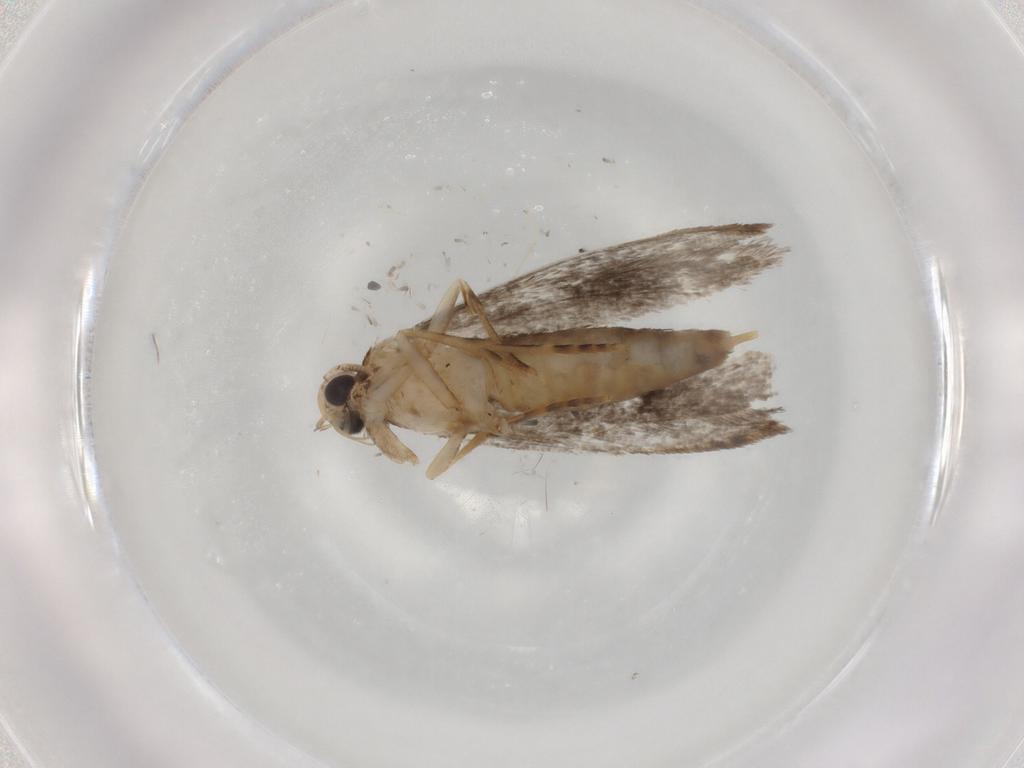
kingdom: Animalia
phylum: Arthropoda
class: Insecta
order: Lepidoptera
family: Tineidae
